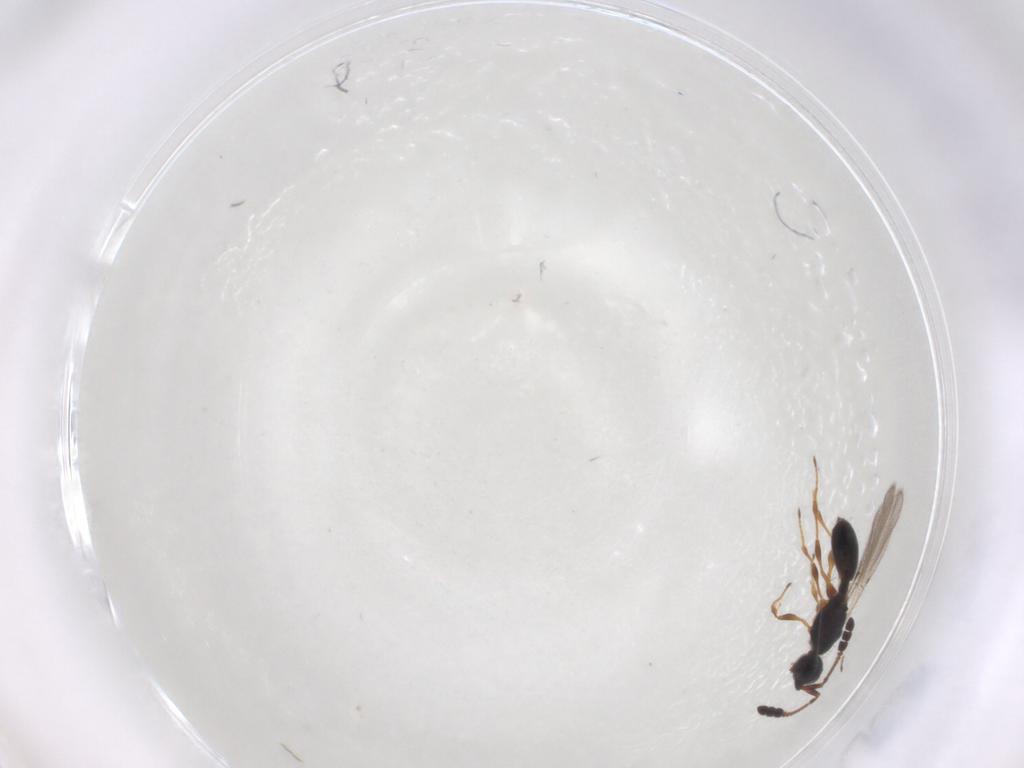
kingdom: Animalia
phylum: Arthropoda
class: Insecta
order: Hymenoptera
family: Diapriidae
